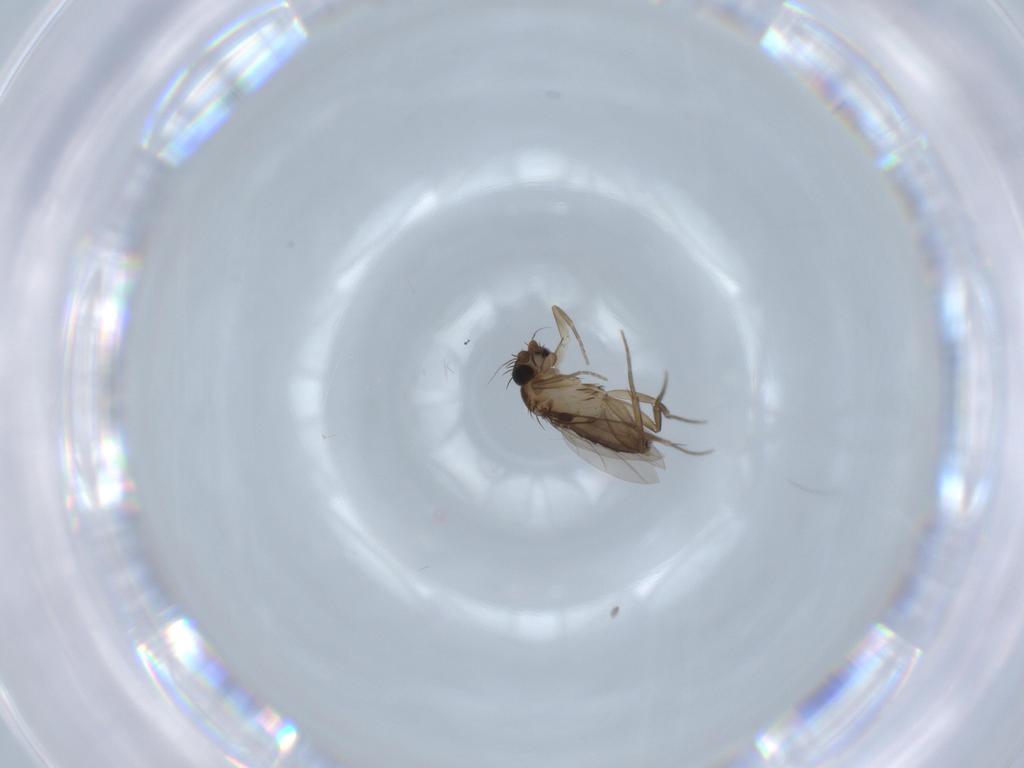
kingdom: Animalia
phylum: Arthropoda
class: Insecta
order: Diptera
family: Phoridae
